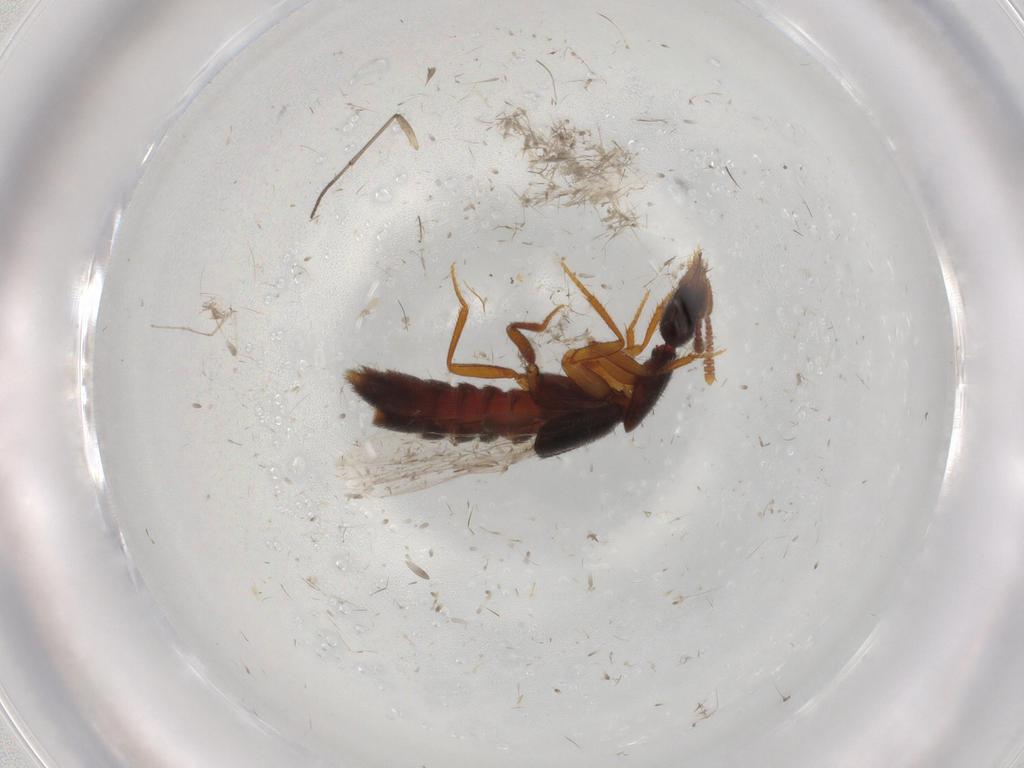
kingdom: Animalia
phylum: Arthropoda
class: Insecta
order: Coleoptera
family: Staphylinidae
